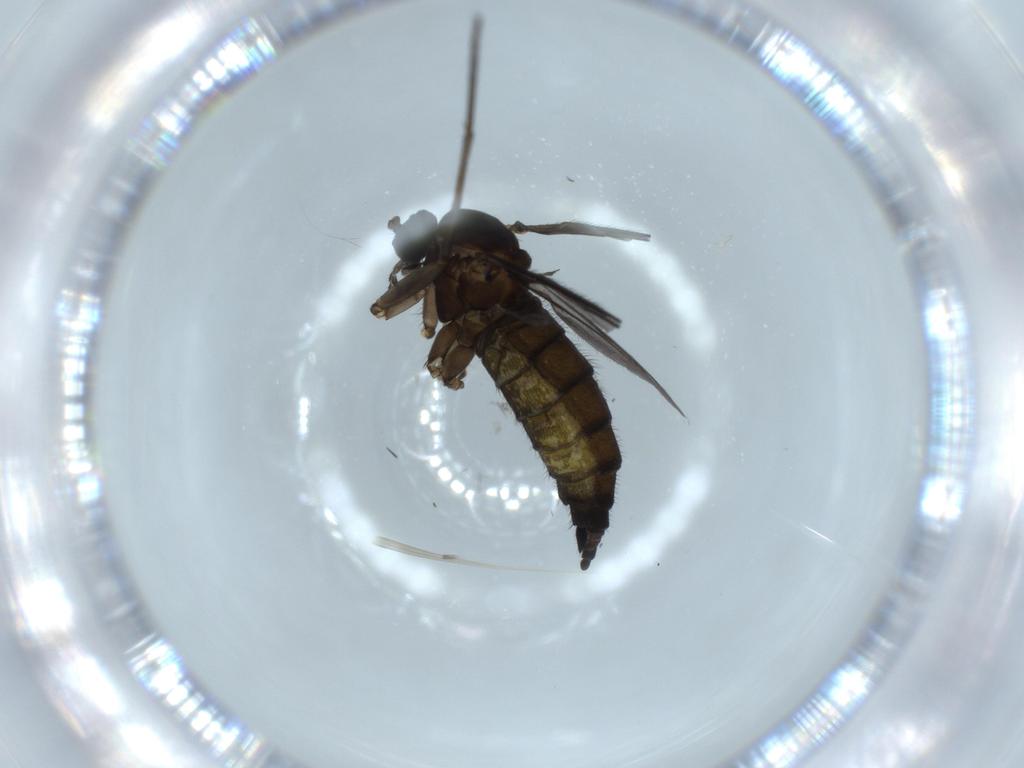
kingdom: Animalia
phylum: Arthropoda
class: Insecta
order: Diptera
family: Sciaridae
